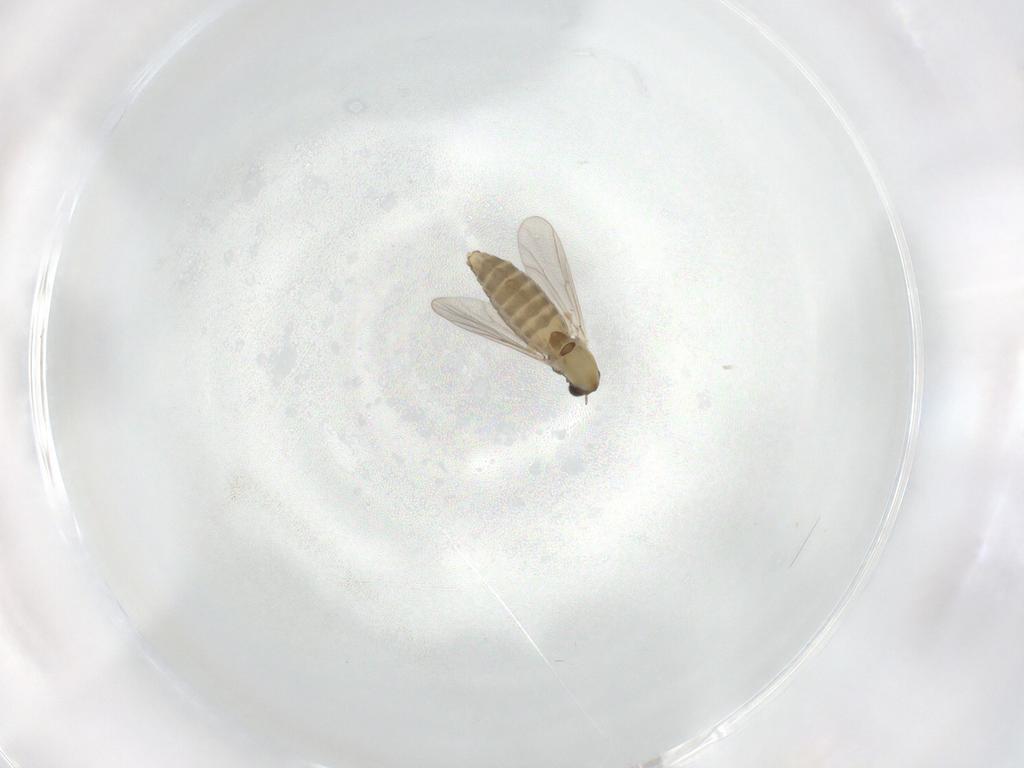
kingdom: Animalia
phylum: Arthropoda
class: Insecta
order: Diptera
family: Chironomidae
